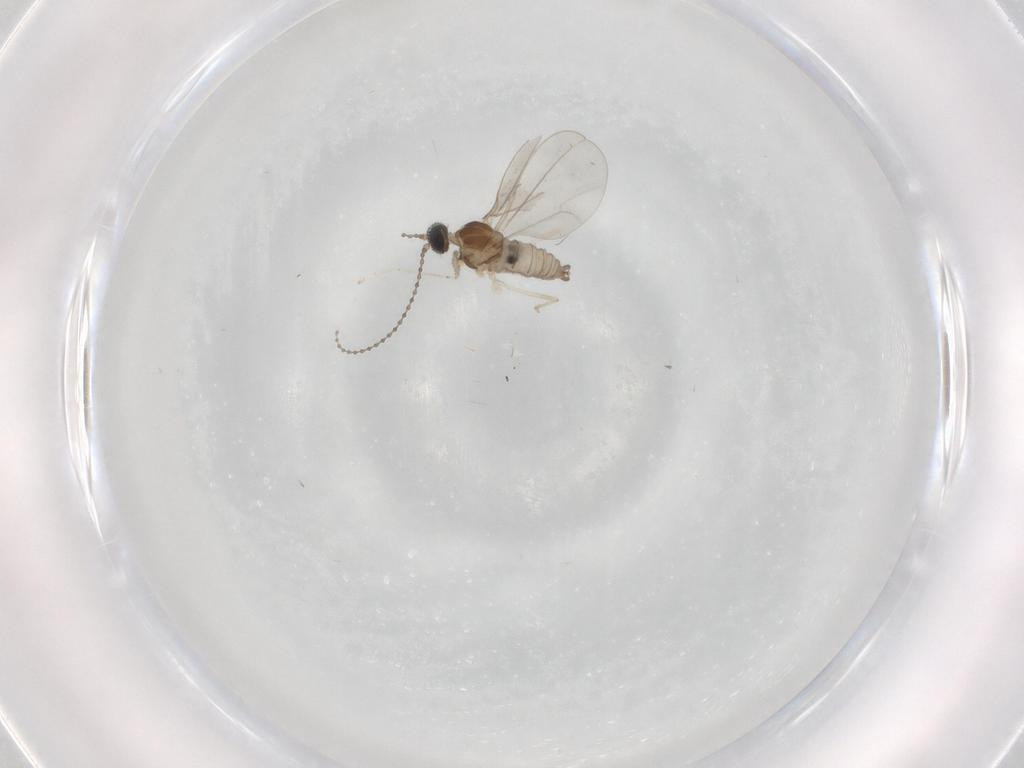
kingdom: Animalia
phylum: Arthropoda
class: Insecta
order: Diptera
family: Cecidomyiidae
